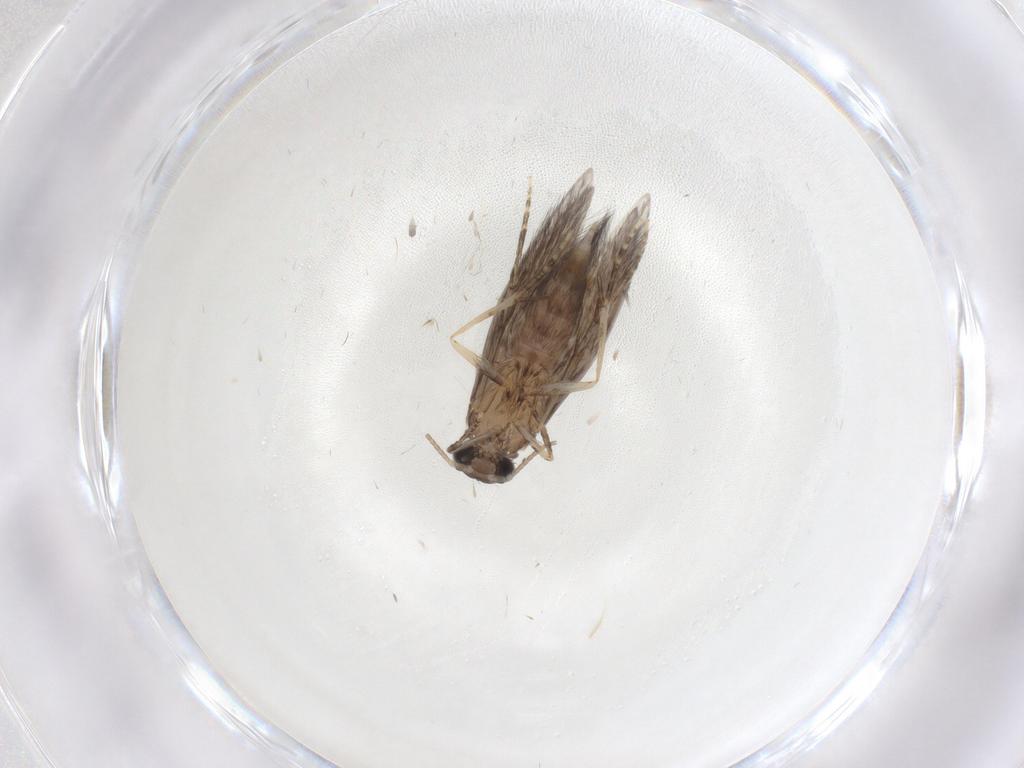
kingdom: Animalia
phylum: Arthropoda
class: Insecta
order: Trichoptera
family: Hydroptilidae
